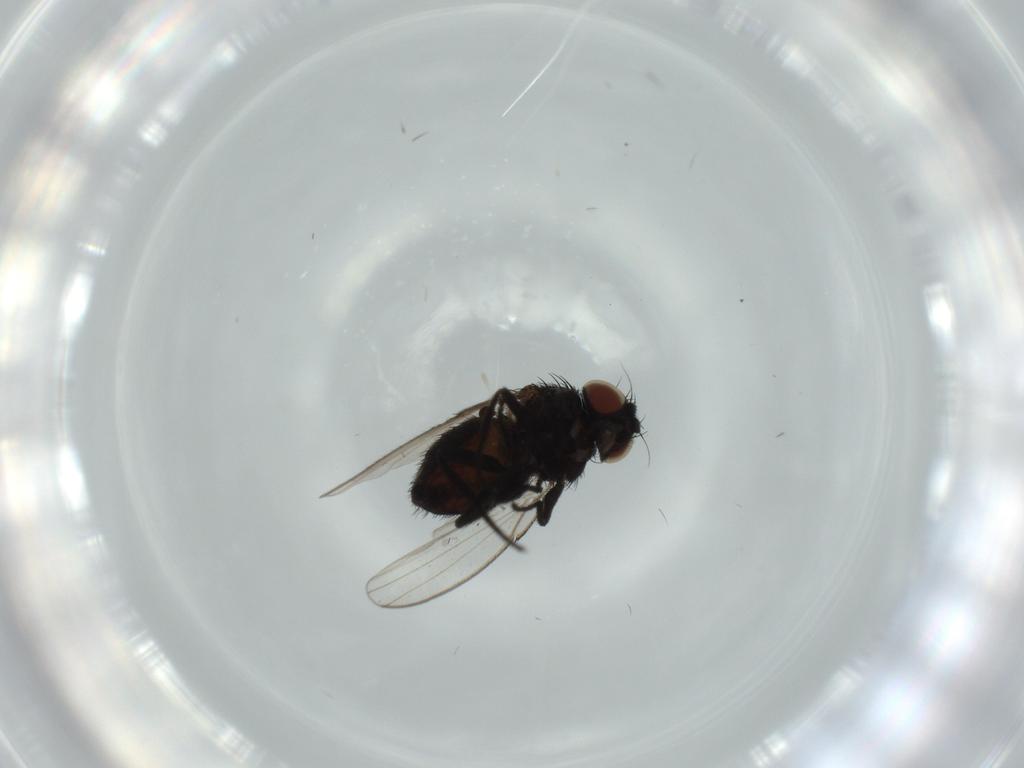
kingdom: Animalia
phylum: Arthropoda
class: Insecta
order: Diptera
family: Milichiidae
